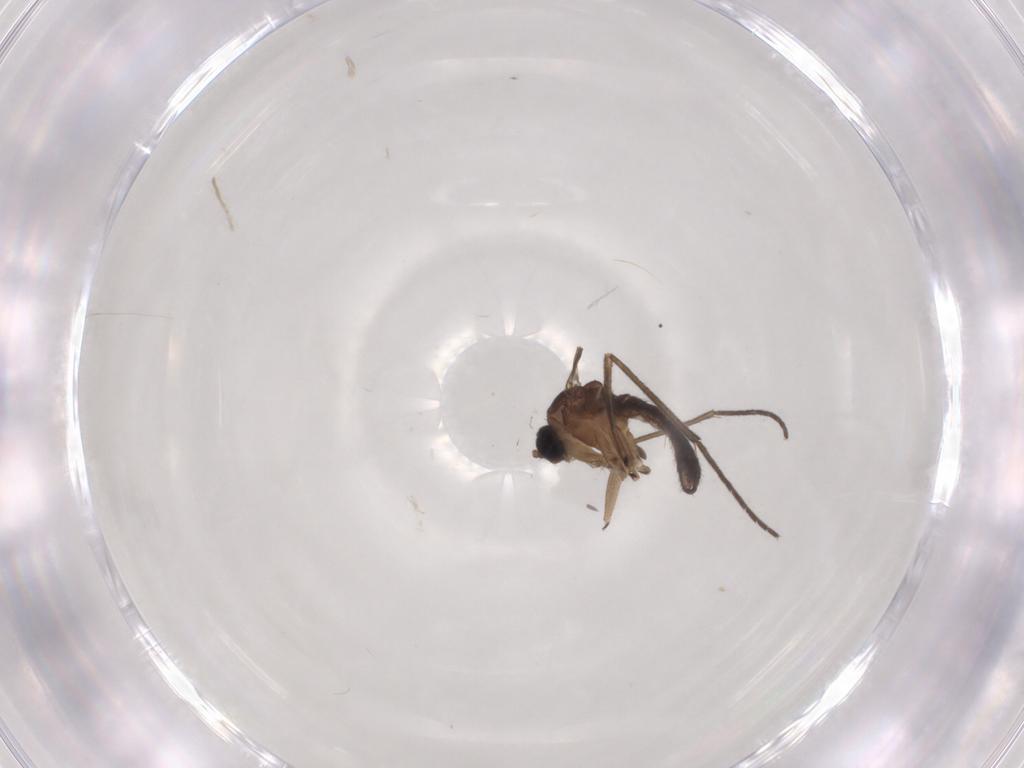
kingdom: Animalia
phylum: Arthropoda
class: Insecta
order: Diptera
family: Sciaridae
